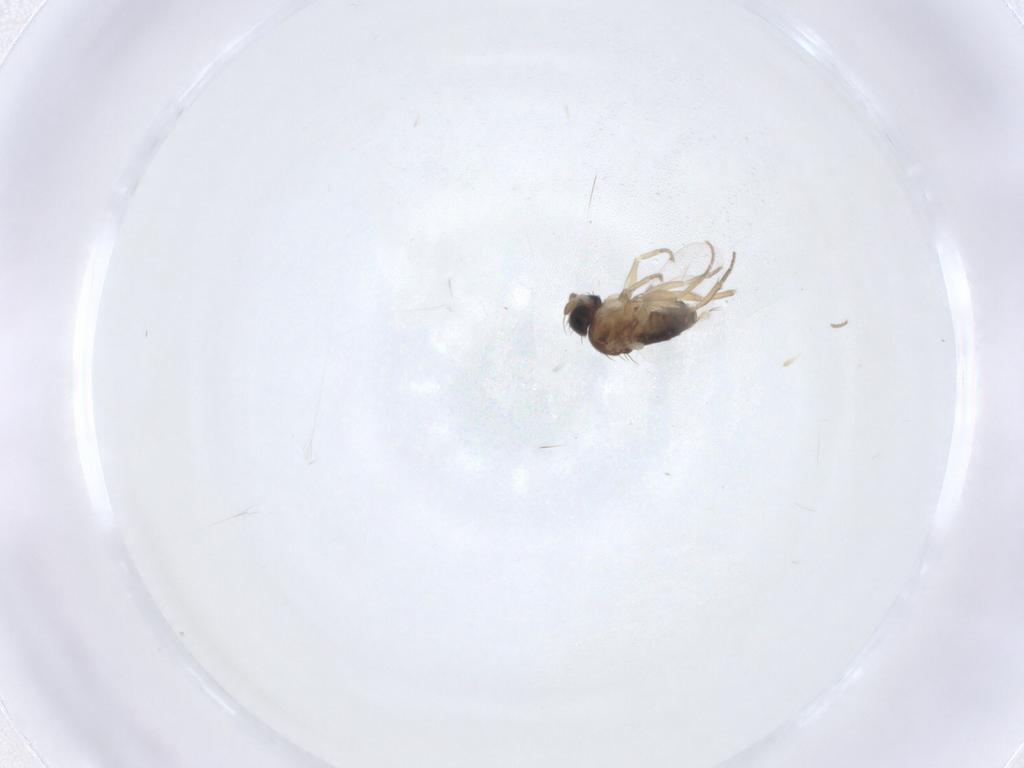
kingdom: Animalia
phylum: Arthropoda
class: Insecta
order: Diptera
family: Phoridae
